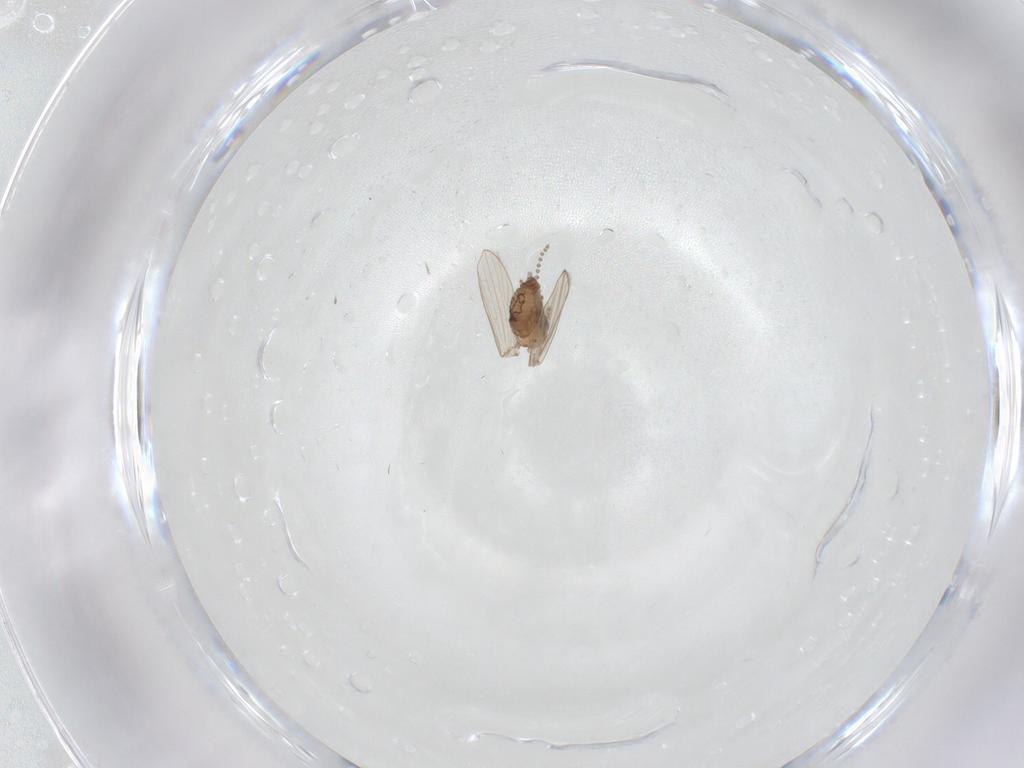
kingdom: Animalia
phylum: Arthropoda
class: Insecta
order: Diptera
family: Psychodidae
